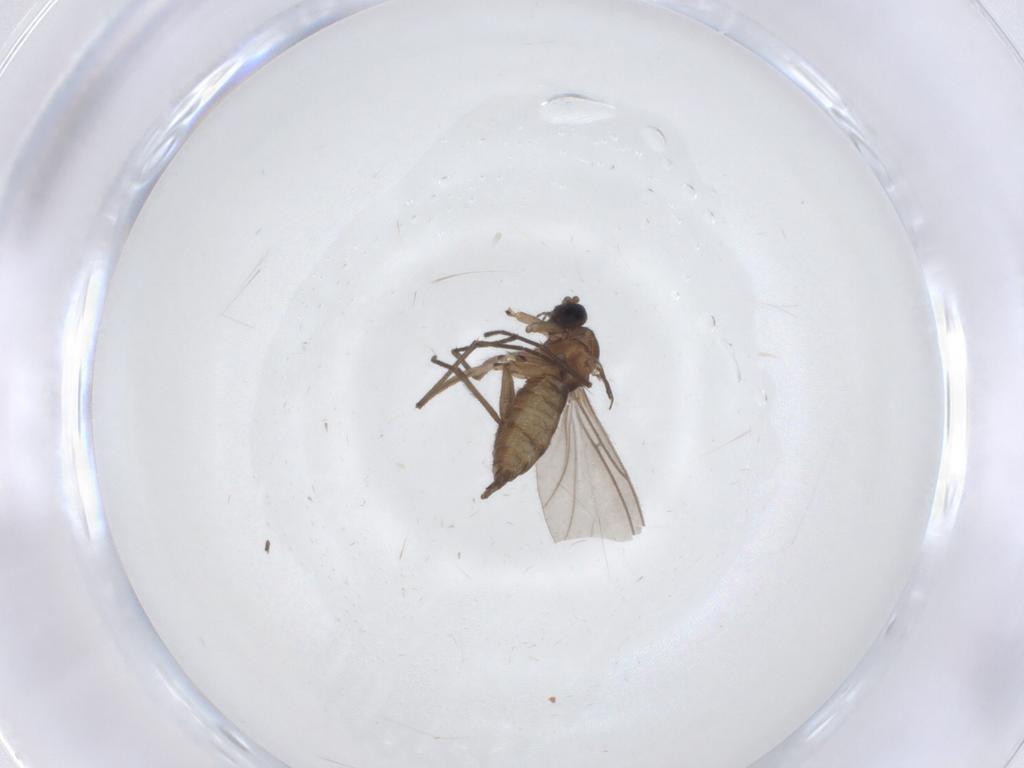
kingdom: Animalia
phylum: Arthropoda
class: Insecta
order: Diptera
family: Sciaridae
